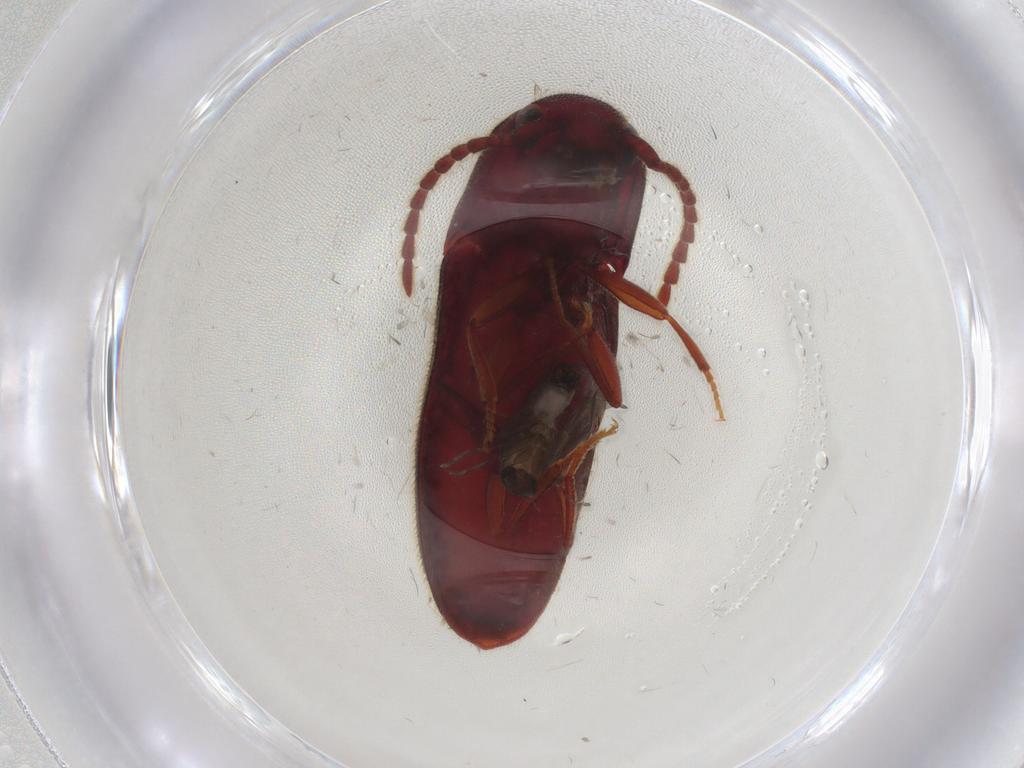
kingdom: Animalia
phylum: Arthropoda
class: Insecta
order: Coleoptera
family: Eucnemidae
